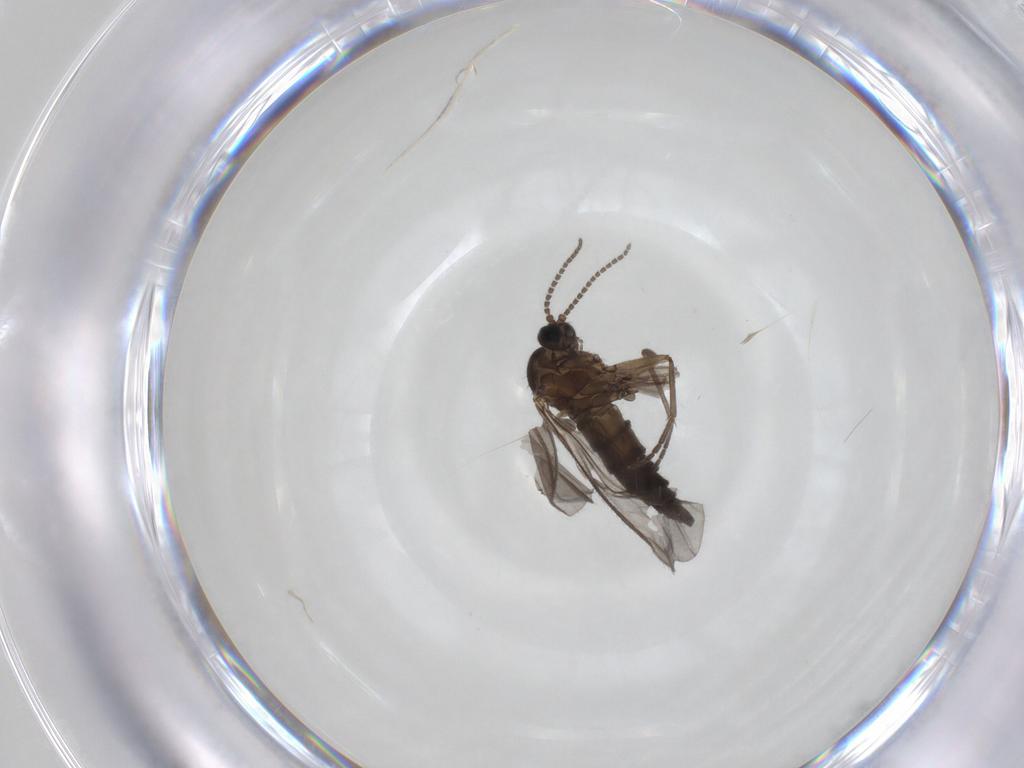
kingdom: Animalia
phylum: Arthropoda
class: Insecta
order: Diptera
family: Sciaridae
